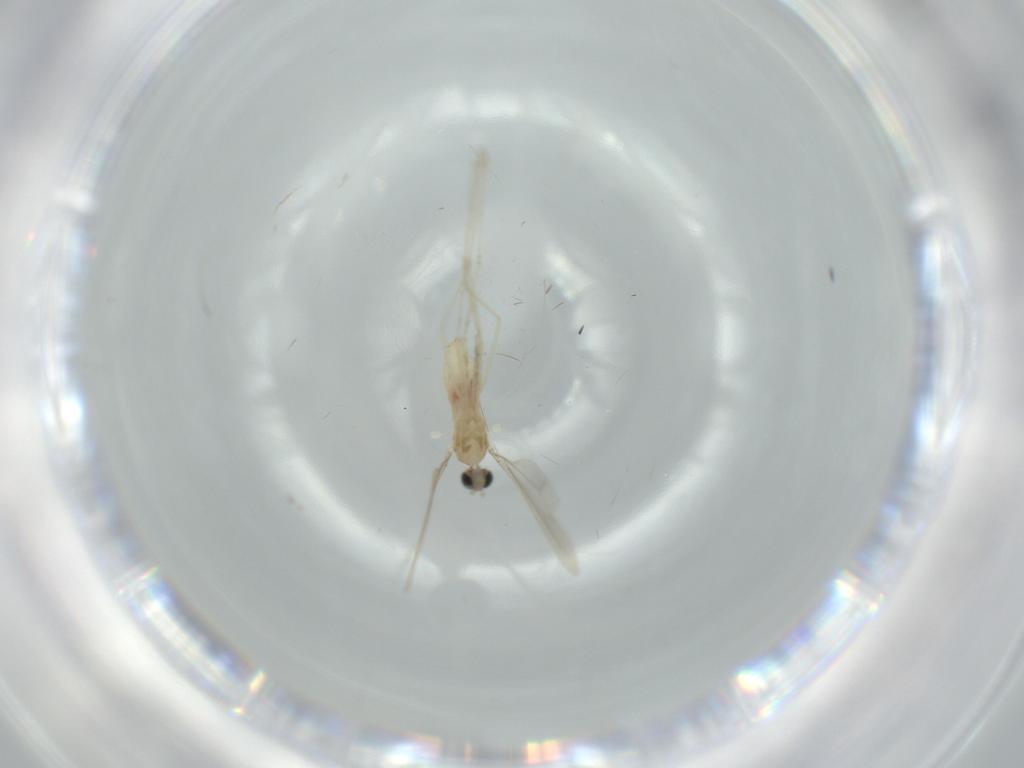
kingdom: Animalia
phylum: Arthropoda
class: Insecta
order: Diptera
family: Cecidomyiidae
